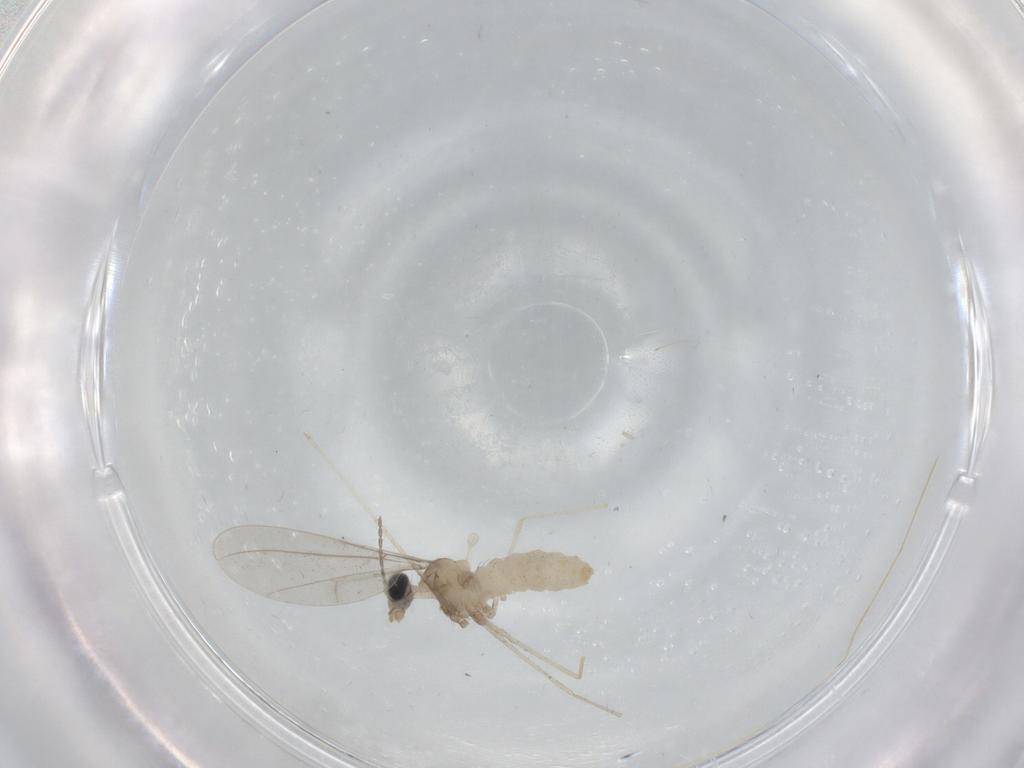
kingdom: Animalia
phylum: Arthropoda
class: Insecta
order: Diptera
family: Cecidomyiidae
